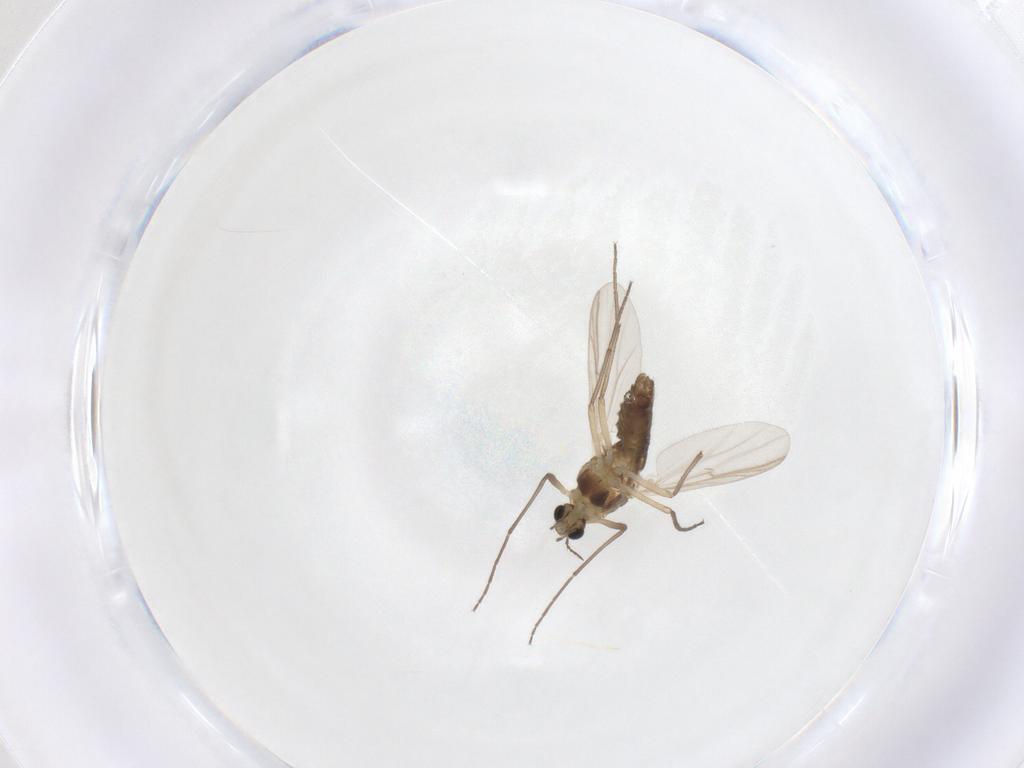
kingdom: Animalia
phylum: Arthropoda
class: Insecta
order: Diptera
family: Chironomidae
